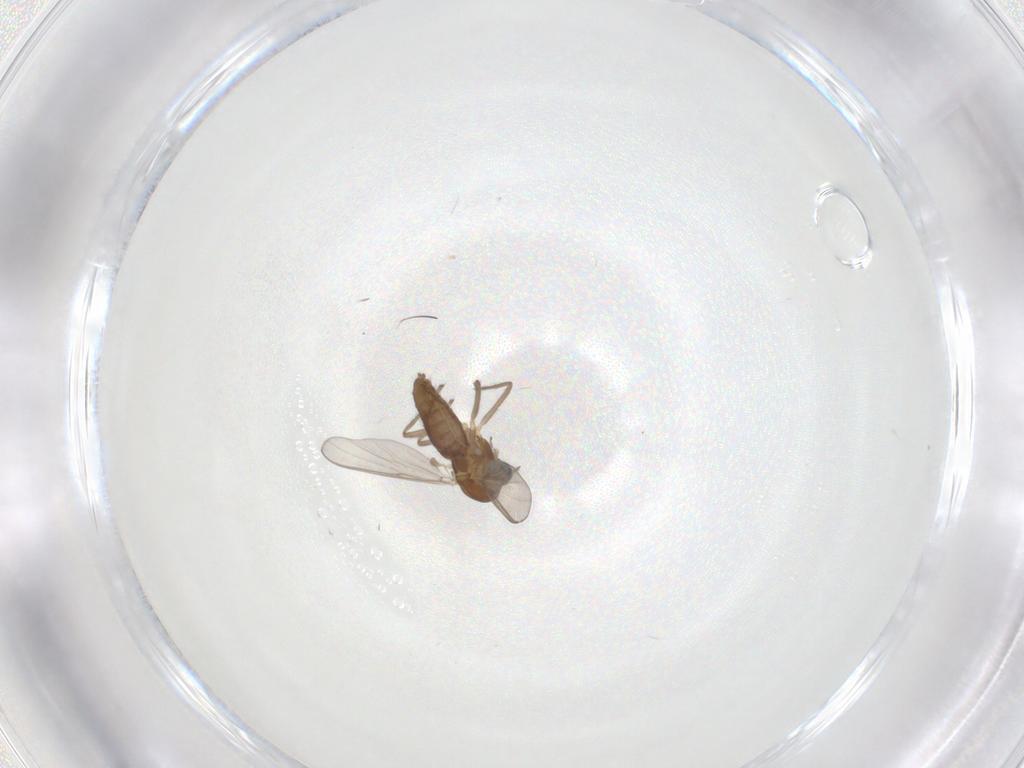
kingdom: Animalia
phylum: Arthropoda
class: Insecta
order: Diptera
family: Chironomidae
